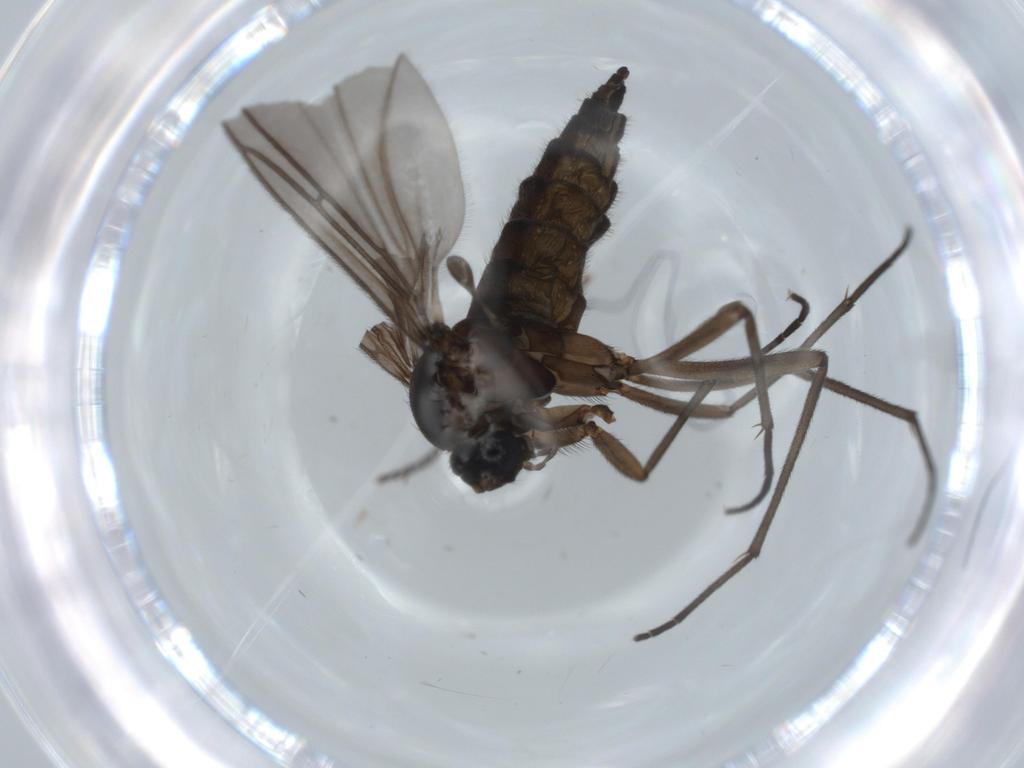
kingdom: Animalia
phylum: Arthropoda
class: Insecta
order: Diptera
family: Sciaridae
